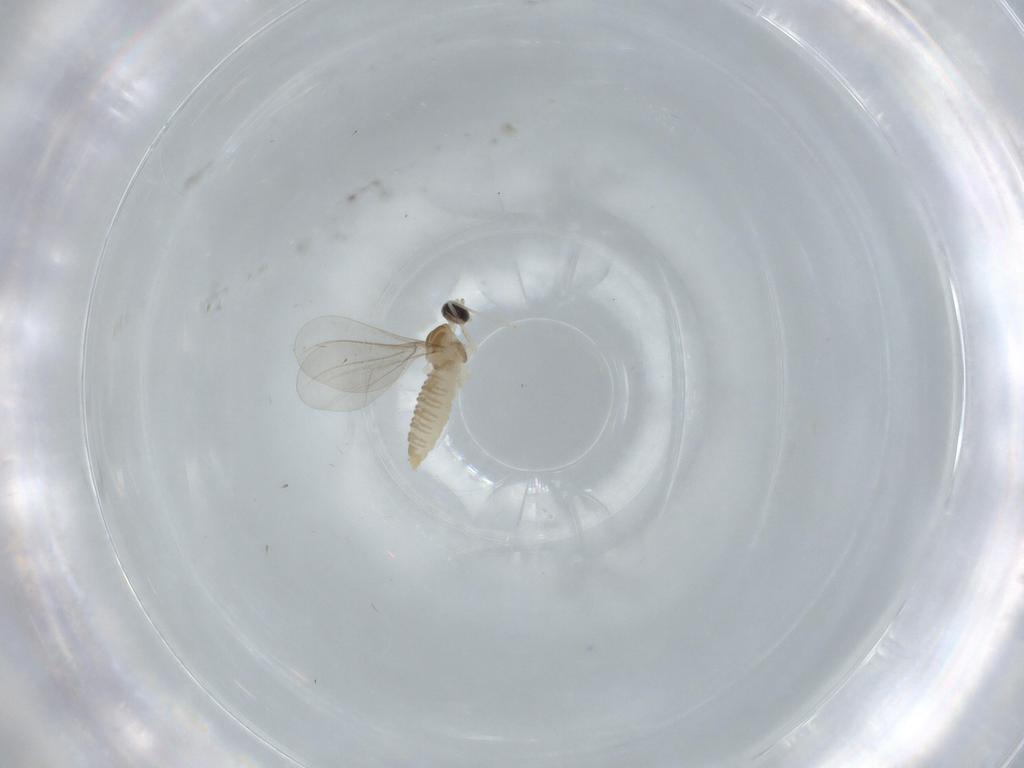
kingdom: Animalia
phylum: Arthropoda
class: Insecta
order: Diptera
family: Cecidomyiidae
